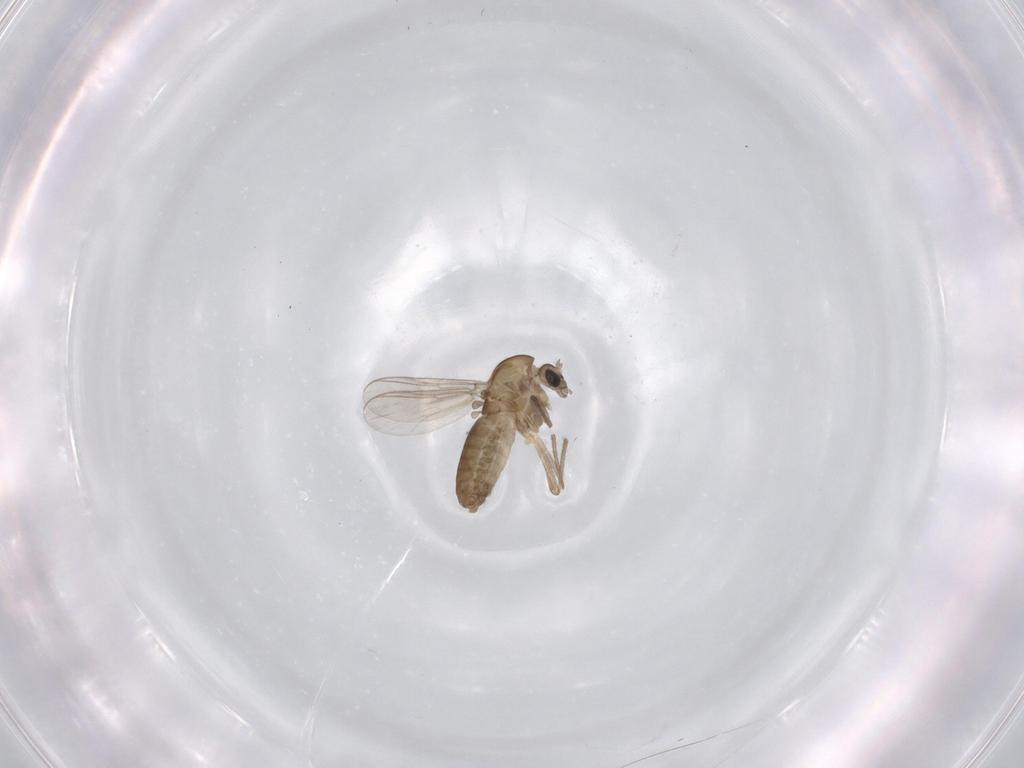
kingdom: Animalia
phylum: Arthropoda
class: Insecta
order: Diptera
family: Chironomidae
